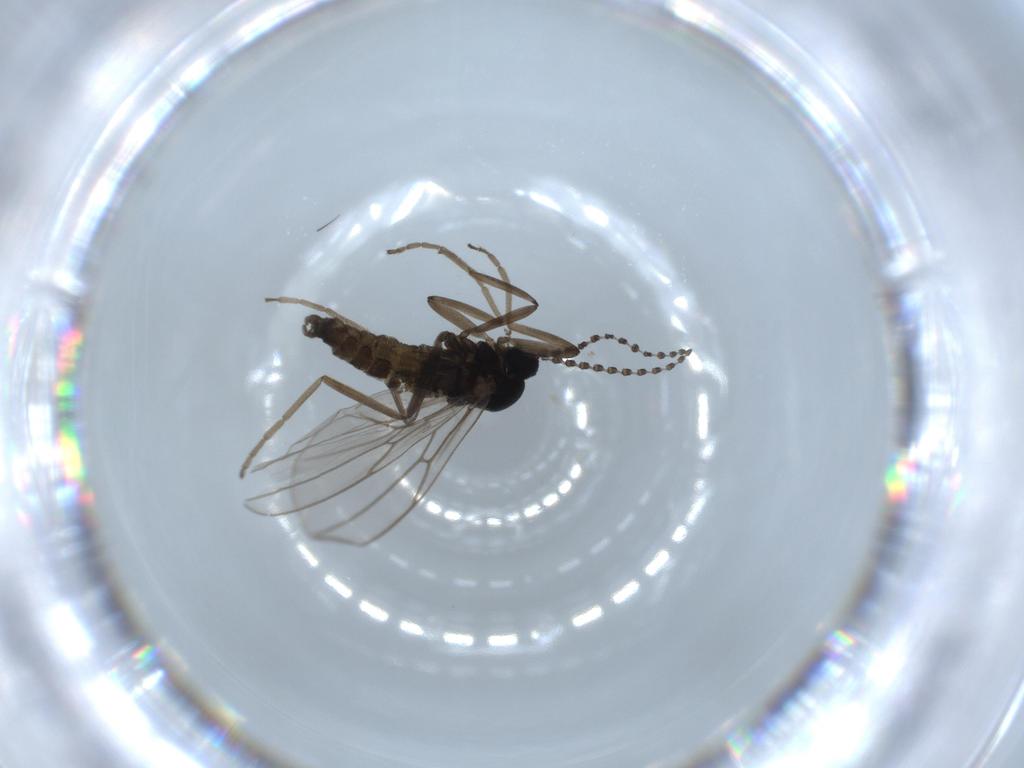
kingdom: Animalia
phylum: Arthropoda
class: Insecta
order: Diptera
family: Cecidomyiidae
